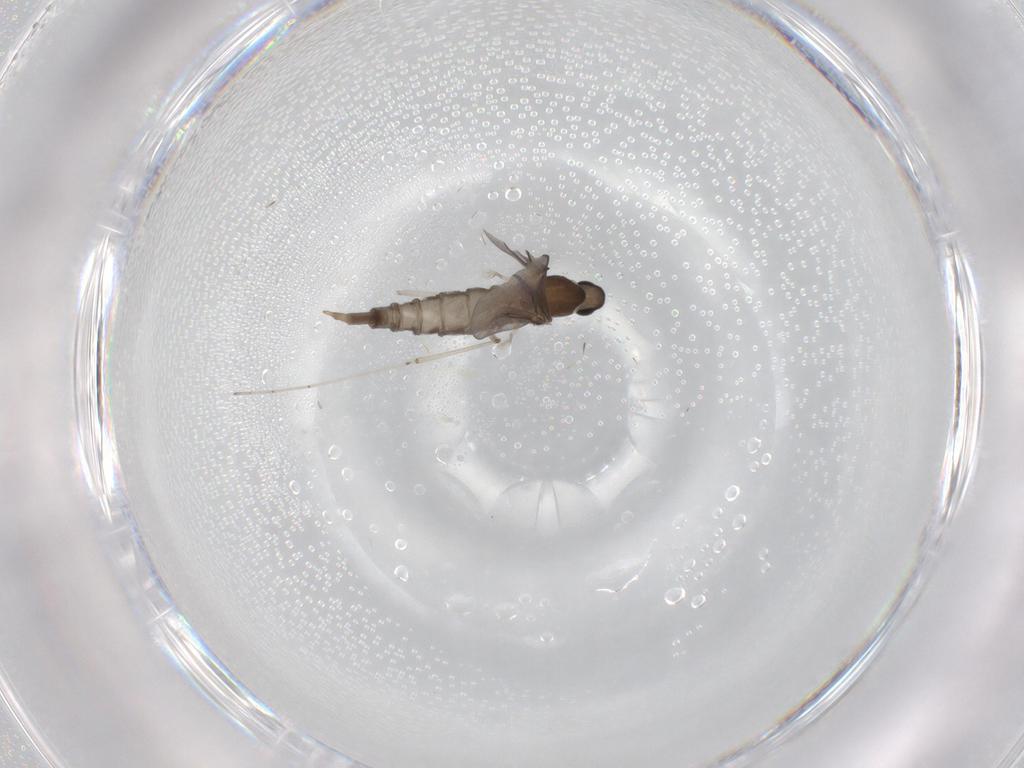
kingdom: Animalia
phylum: Arthropoda
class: Insecta
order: Diptera
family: Cecidomyiidae
